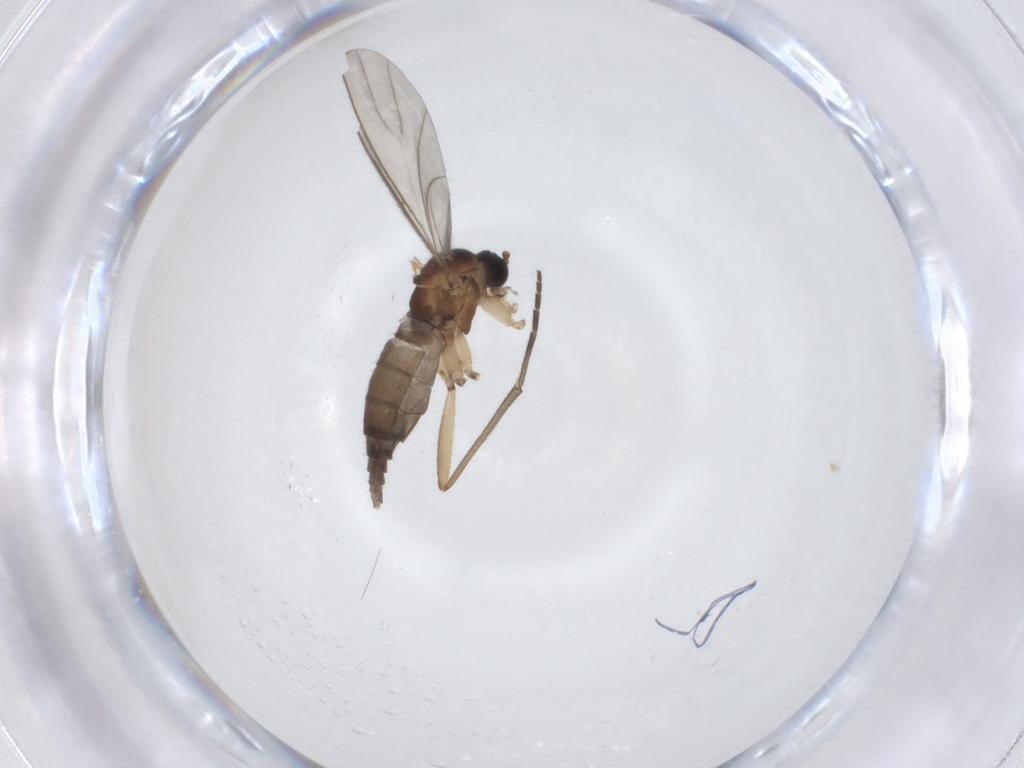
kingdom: Animalia
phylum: Arthropoda
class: Insecta
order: Diptera
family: Sciaridae
